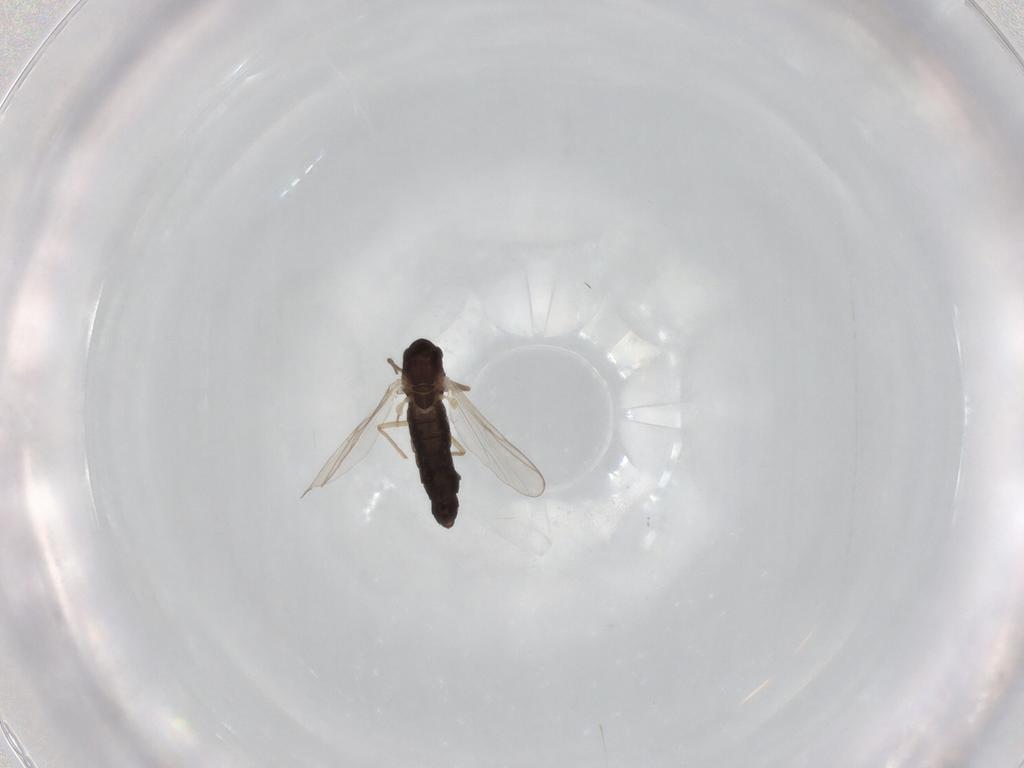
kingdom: Animalia
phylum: Arthropoda
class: Insecta
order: Diptera
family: Chironomidae
